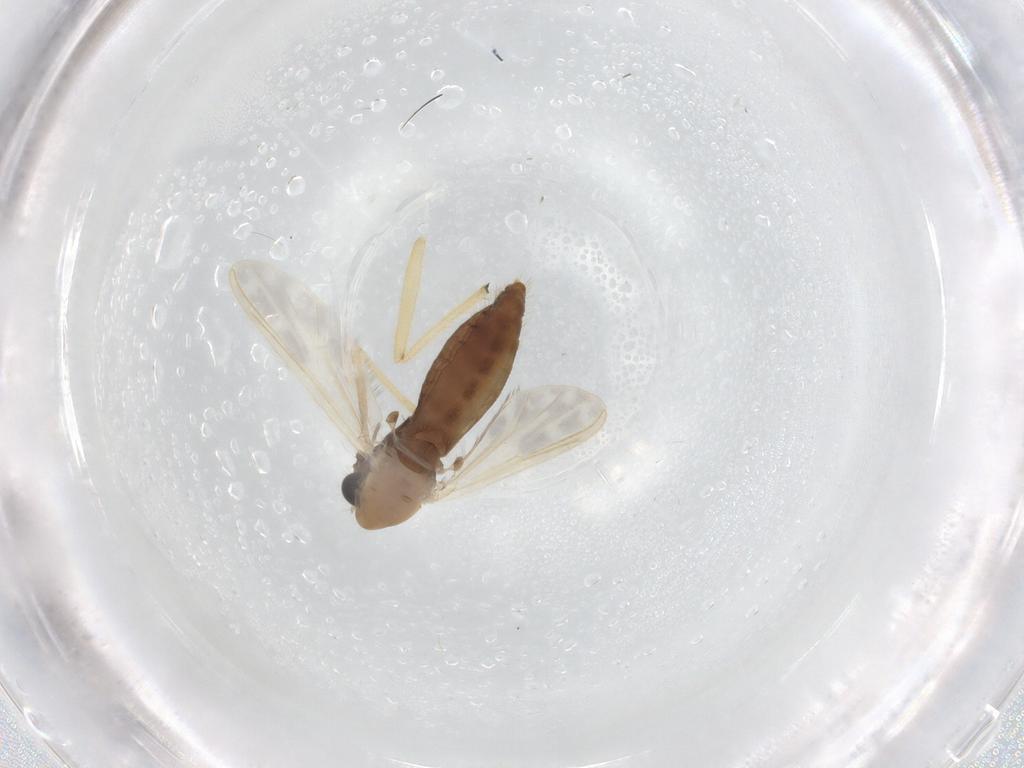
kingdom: Animalia
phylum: Arthropoda
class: Insecta
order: Diptera
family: Chironomidae
